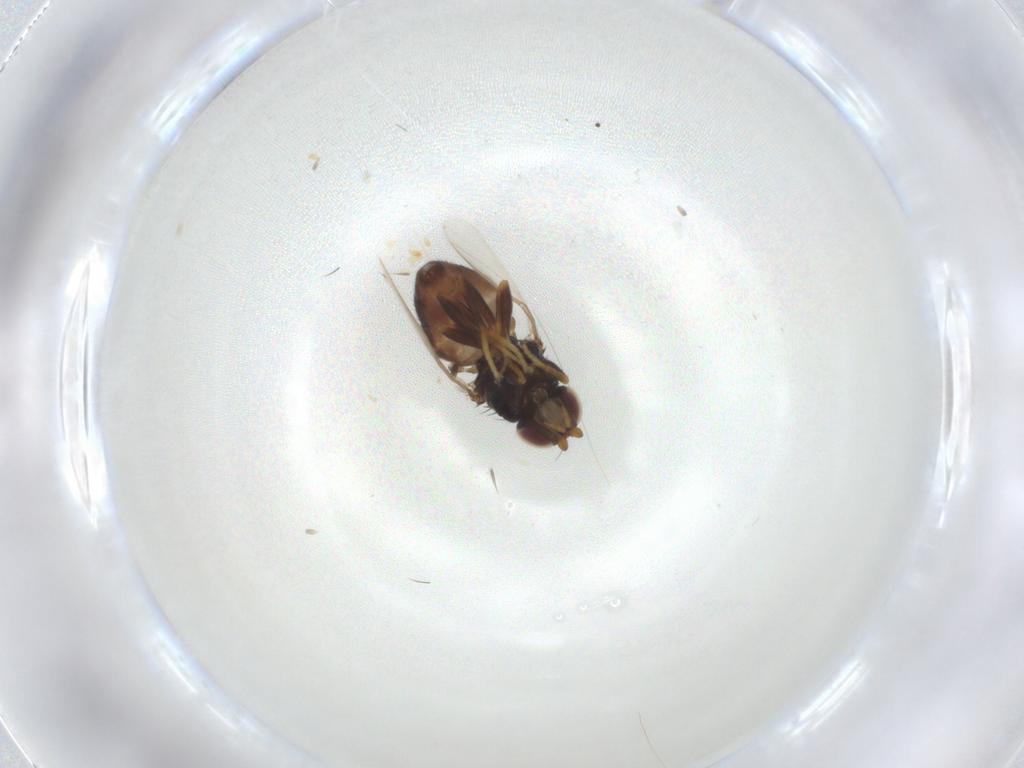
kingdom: Animalia
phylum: Arthropoda
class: Insecta
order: Diptera
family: Chloropidae
